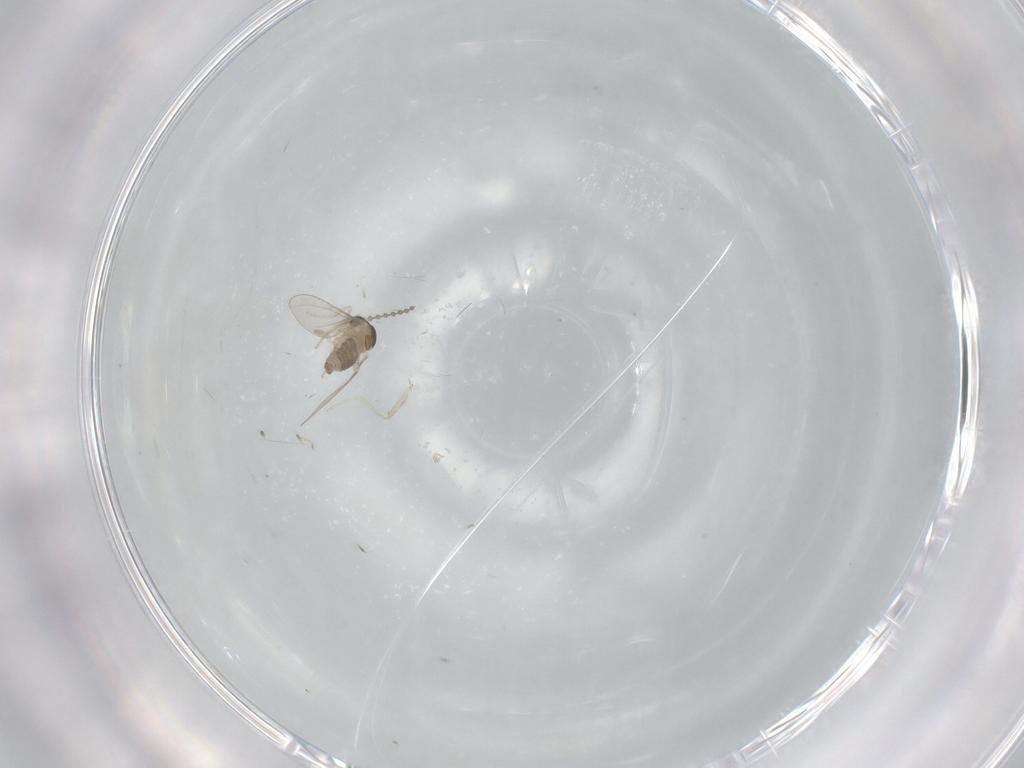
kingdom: Animalia
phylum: Arthropoda
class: Insecta
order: Diptera
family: Cecidomyiidae
